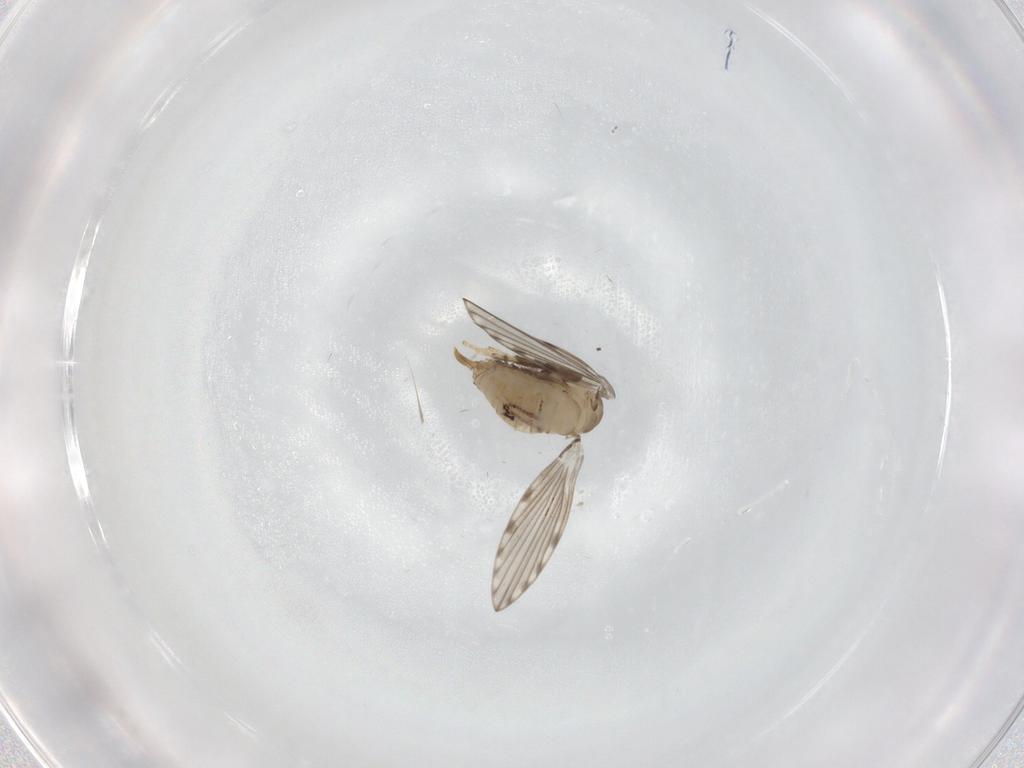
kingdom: Animalia
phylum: Arthropoda
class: Insecta
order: Diptera
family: Psychodidae
